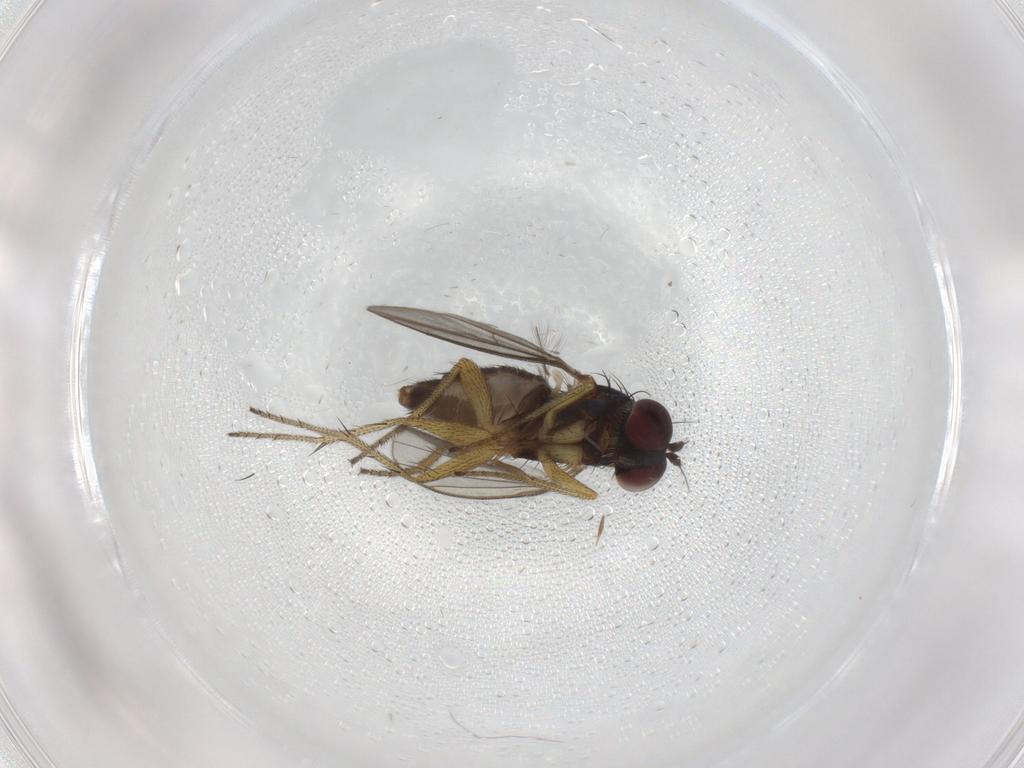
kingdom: Animalia
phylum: Arthropoda
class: Insecta
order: Diptera
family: Dolichopodidae
